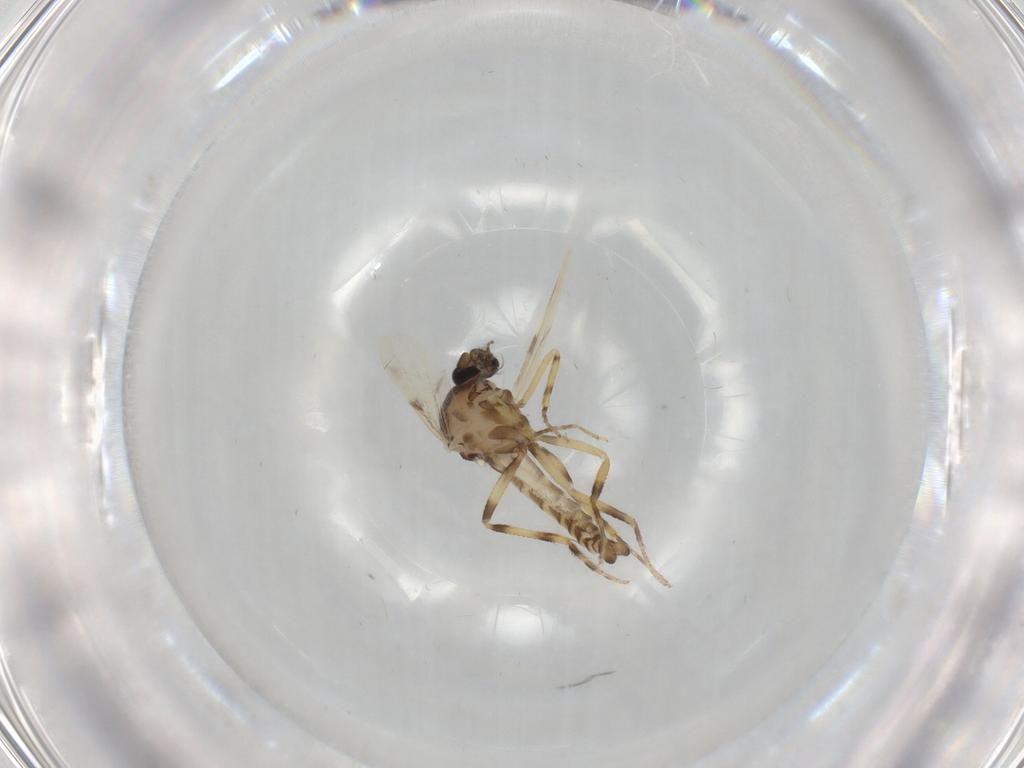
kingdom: Animalia
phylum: Arthropoda
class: Insecta
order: Diptera
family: Ceratopogonidae
